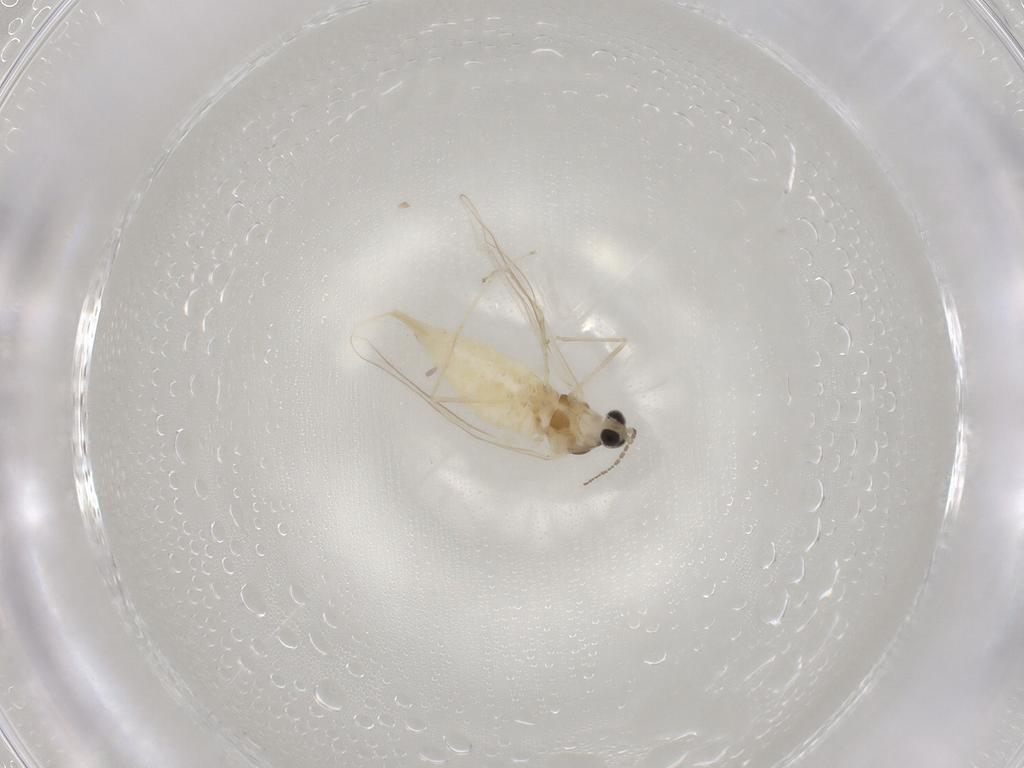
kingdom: Animalia
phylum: Arthropoda
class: Insecta
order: Diptera
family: Cecidomyiidae
